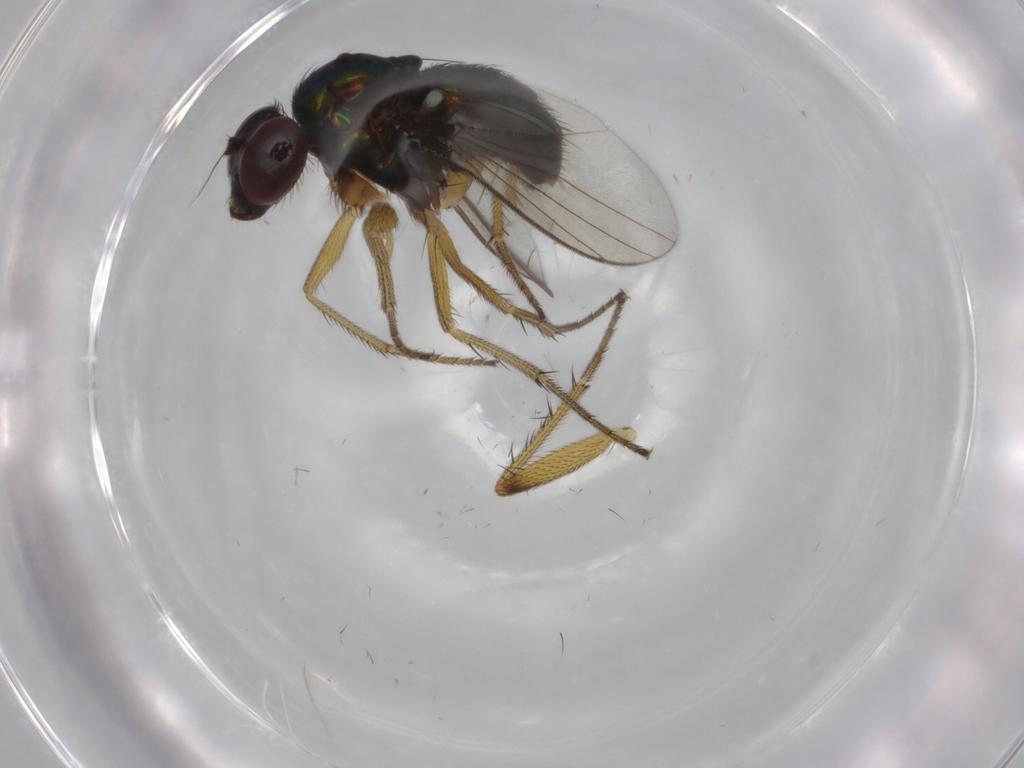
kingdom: Animalia
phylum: Arthropoda
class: Insecta
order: Diptera
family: Dolichopodidae
